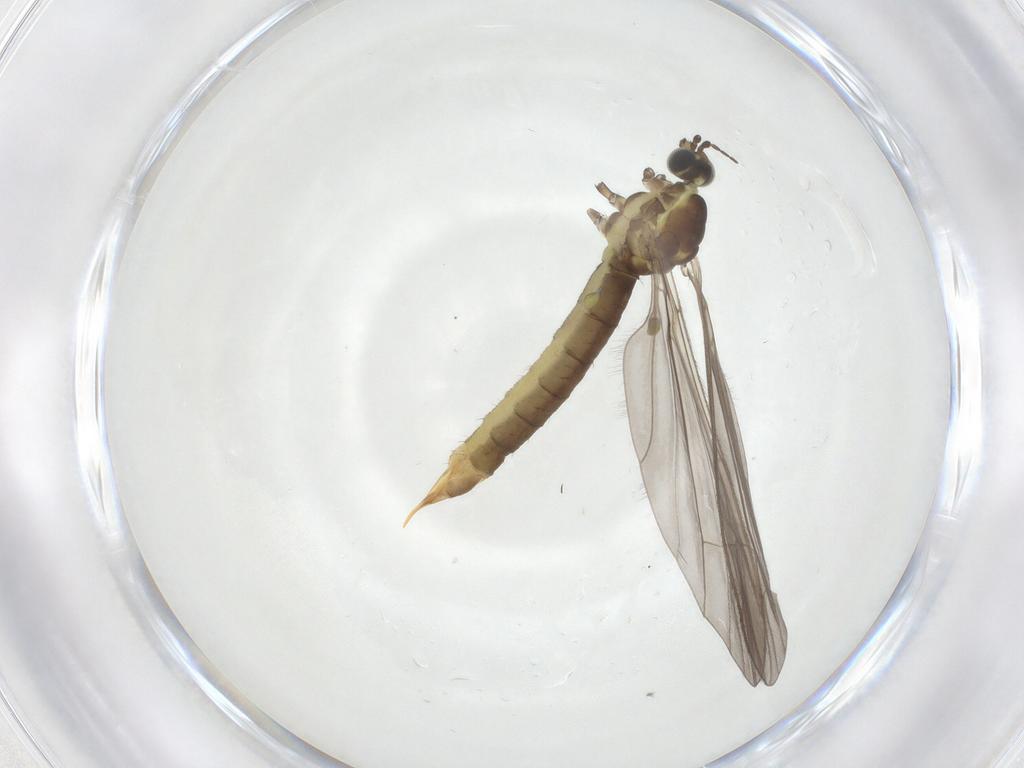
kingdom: Animalia
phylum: Arthropoda
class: Insecta
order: Diptera
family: Limoniidae
